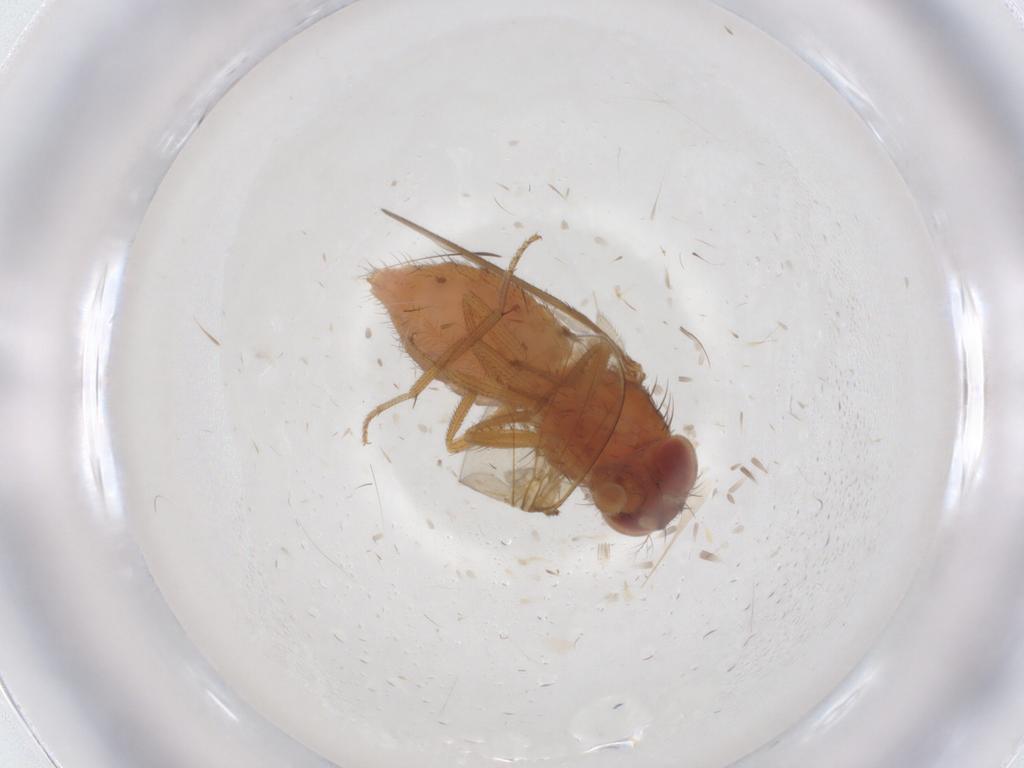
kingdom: Animalia
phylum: Arthropoda
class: Insecta
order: Diptera
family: Drosophilidae
